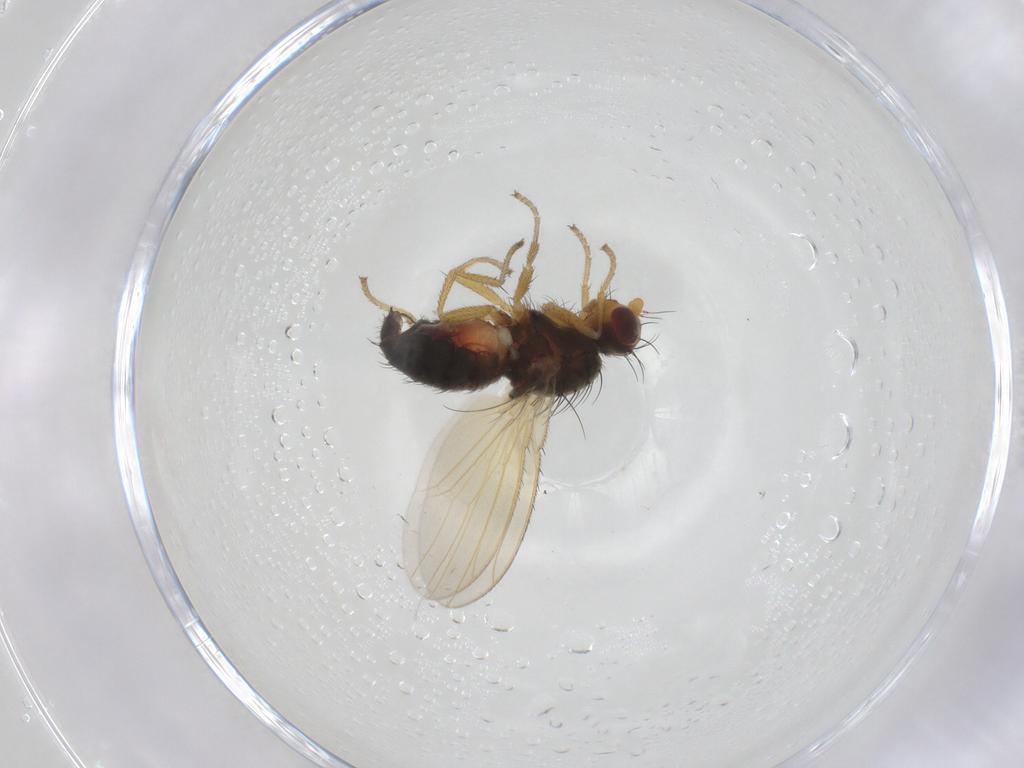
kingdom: Animalia
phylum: Arthropoda
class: Insecta
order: Diptera
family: Heleomyzidae
